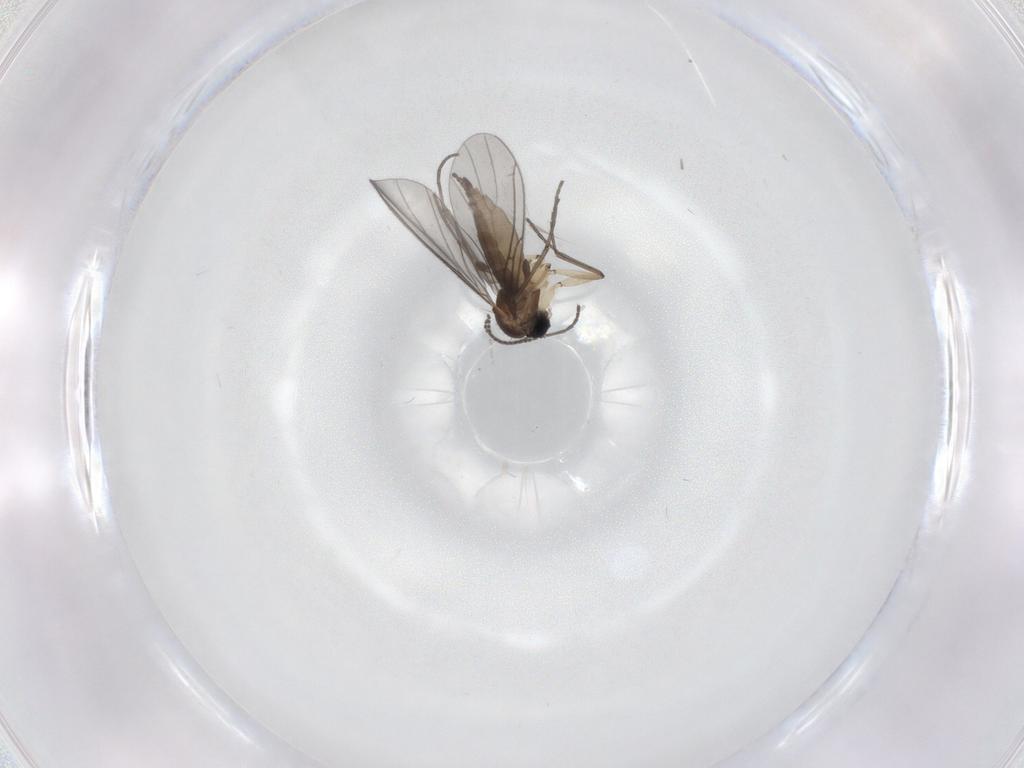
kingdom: Animalia
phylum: Arthropoda
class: Insecta
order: Diptera
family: Sciaridae
